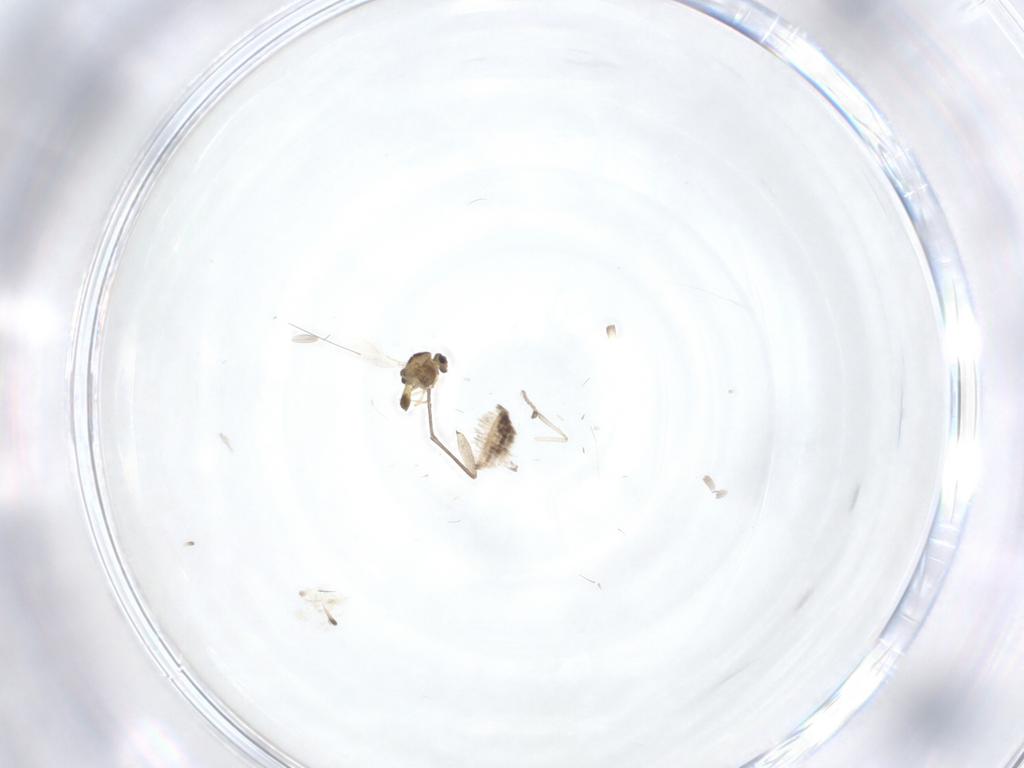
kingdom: Animalia
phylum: Arthropoda
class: Insecta
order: Diptera
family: Chironomidae
